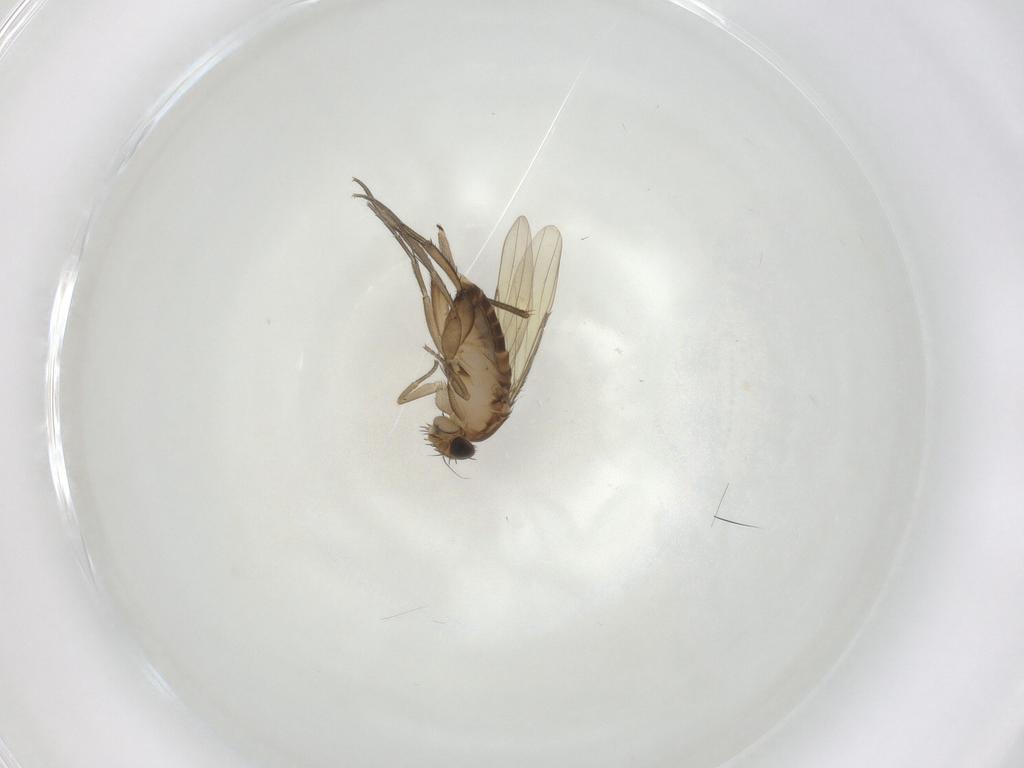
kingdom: Animalia
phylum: Arthropoda
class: Insecta
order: Diptera
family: Phoridae
